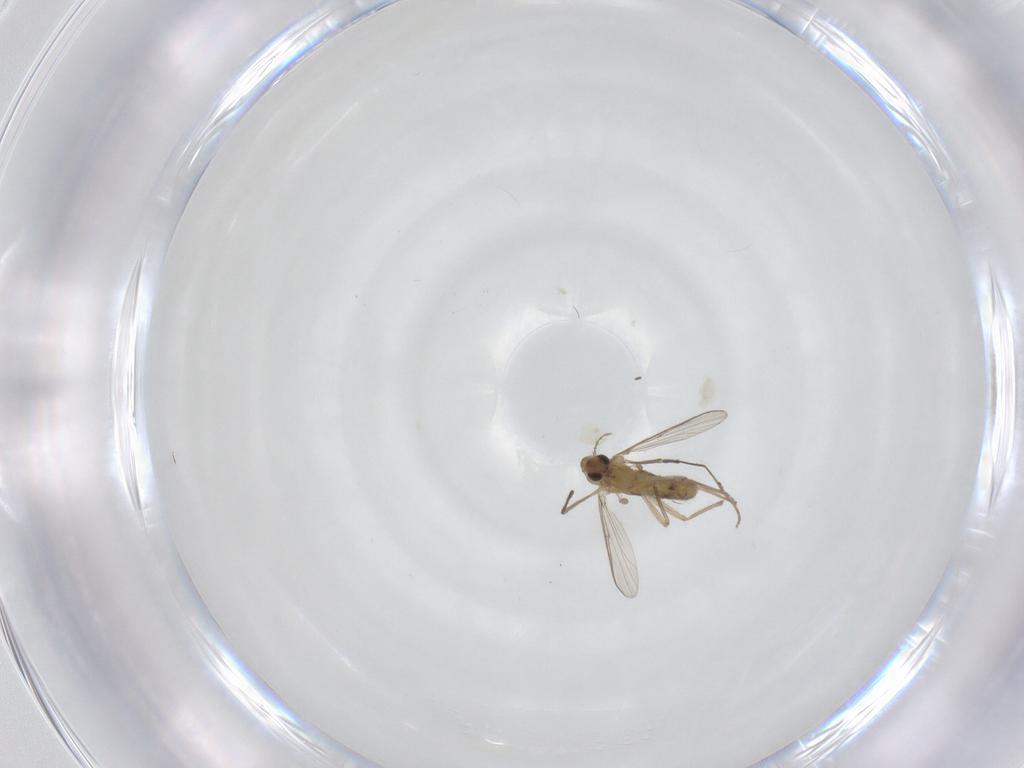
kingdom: Animalia
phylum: Arthropoda
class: Insecta
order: Diptera
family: Chironomidae
